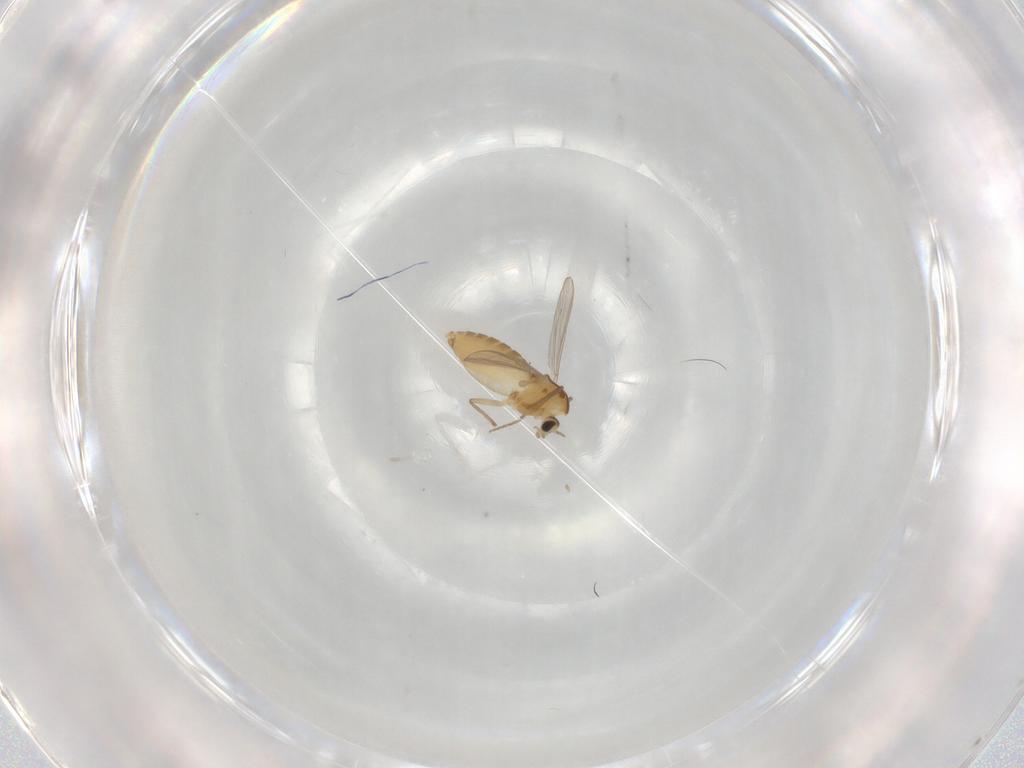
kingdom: Animalia
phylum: Arthropoda
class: Insecta
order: Diptera
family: Chironomidae
